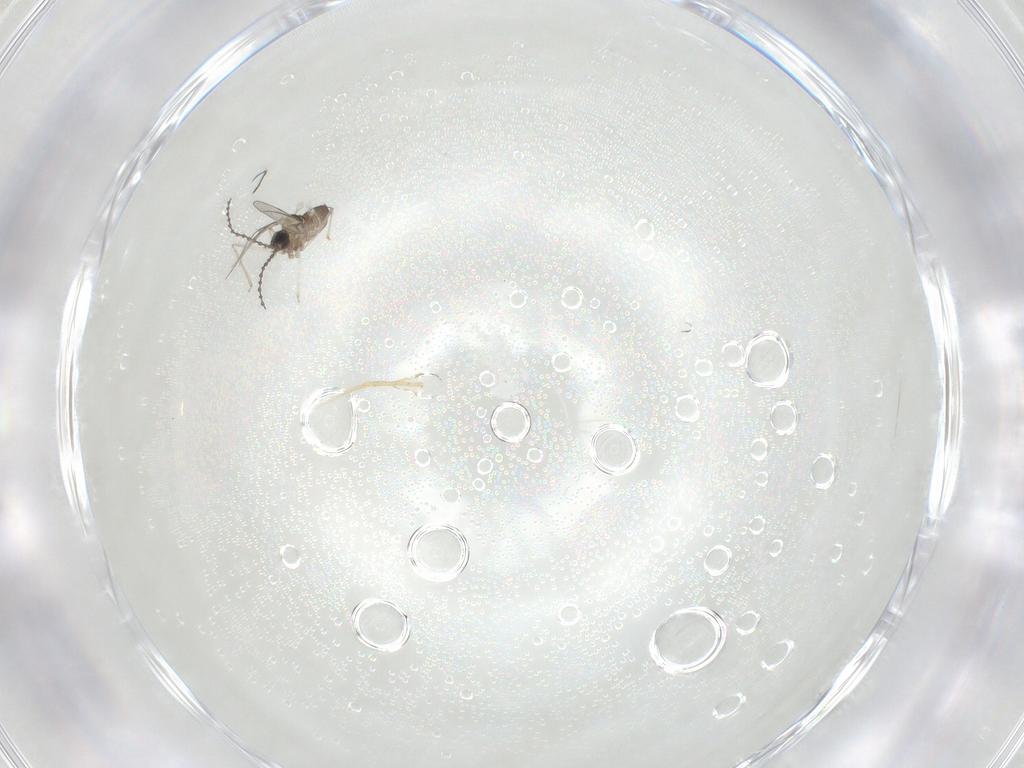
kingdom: Animalia
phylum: Arthropoda
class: Insecta
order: Diptera
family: Cecidomyiidae
